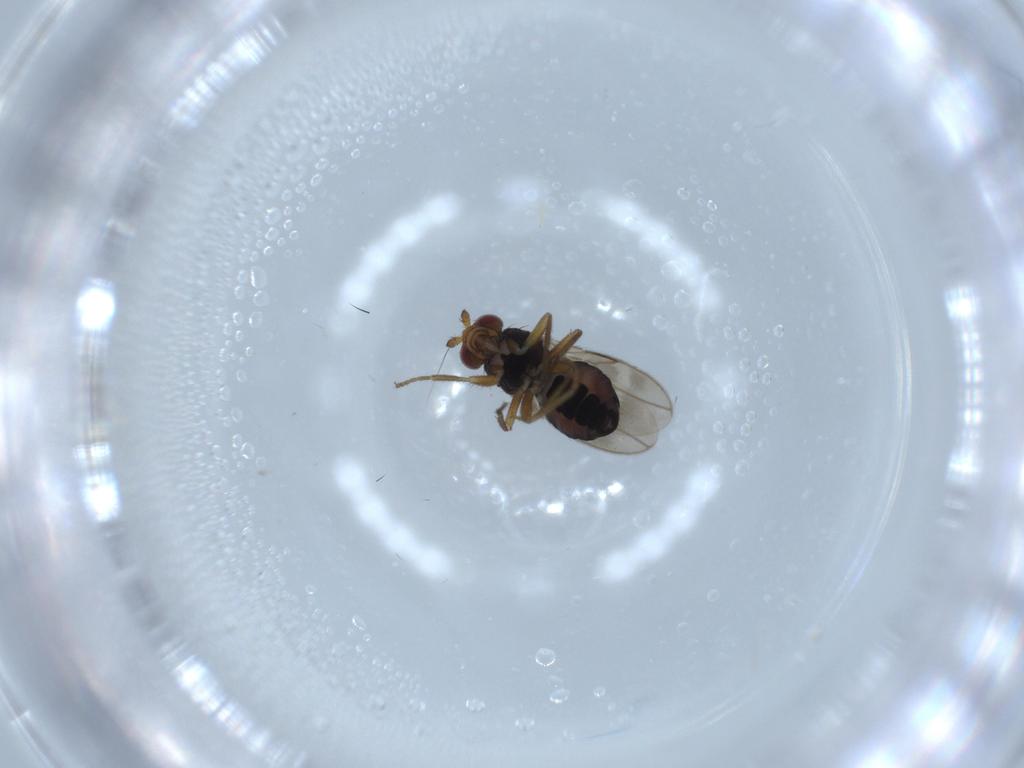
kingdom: Animalia
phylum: Arthropoda
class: Insecta
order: Diptera
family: Sphaeroceridae
